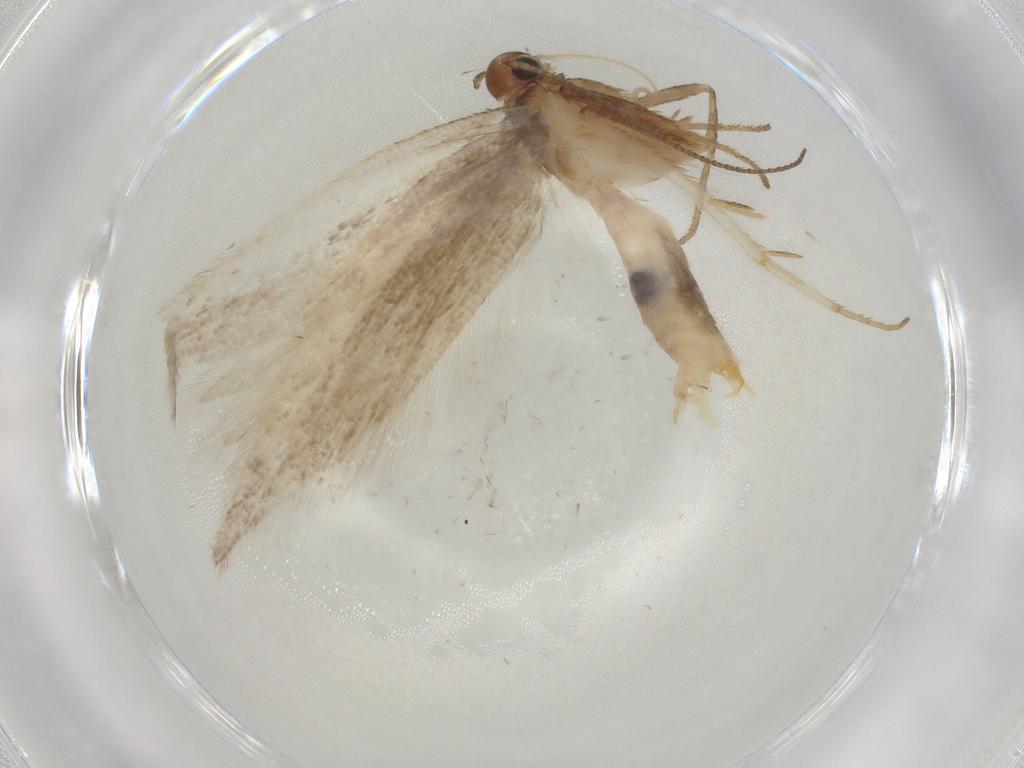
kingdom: Animalia
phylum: Arthropoda
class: Insecta
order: Lepidoptera
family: Gelechiidae
